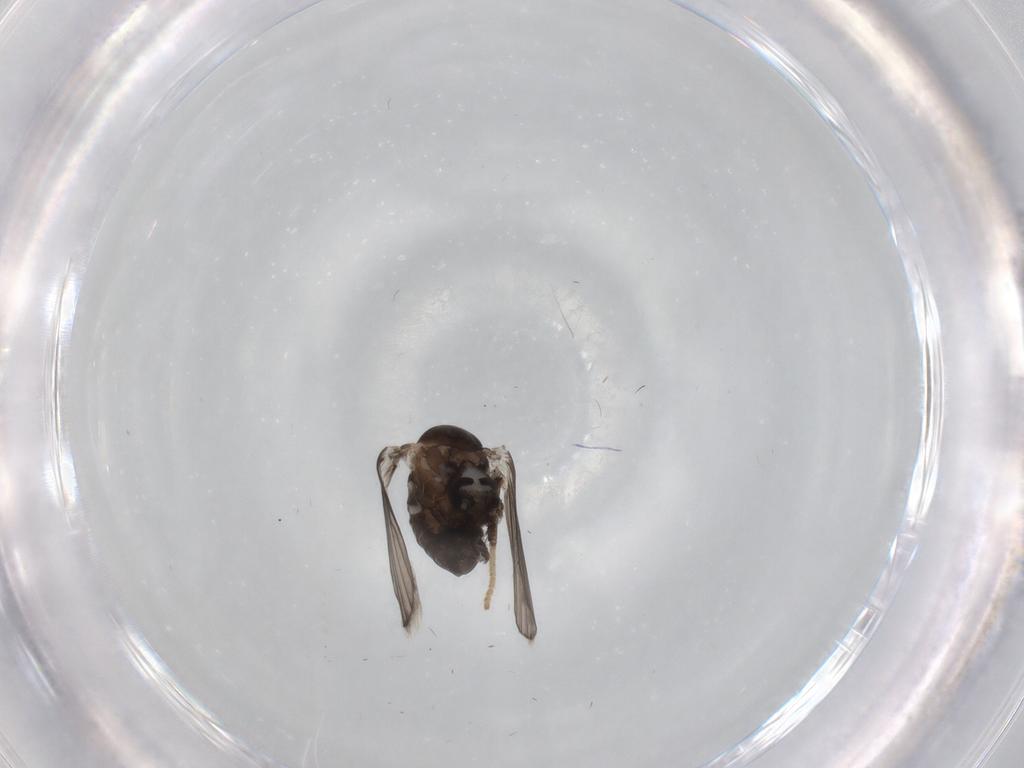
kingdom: Animalia
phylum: Arthropoda
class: Insecta
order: Diptera
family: Psychodidae
